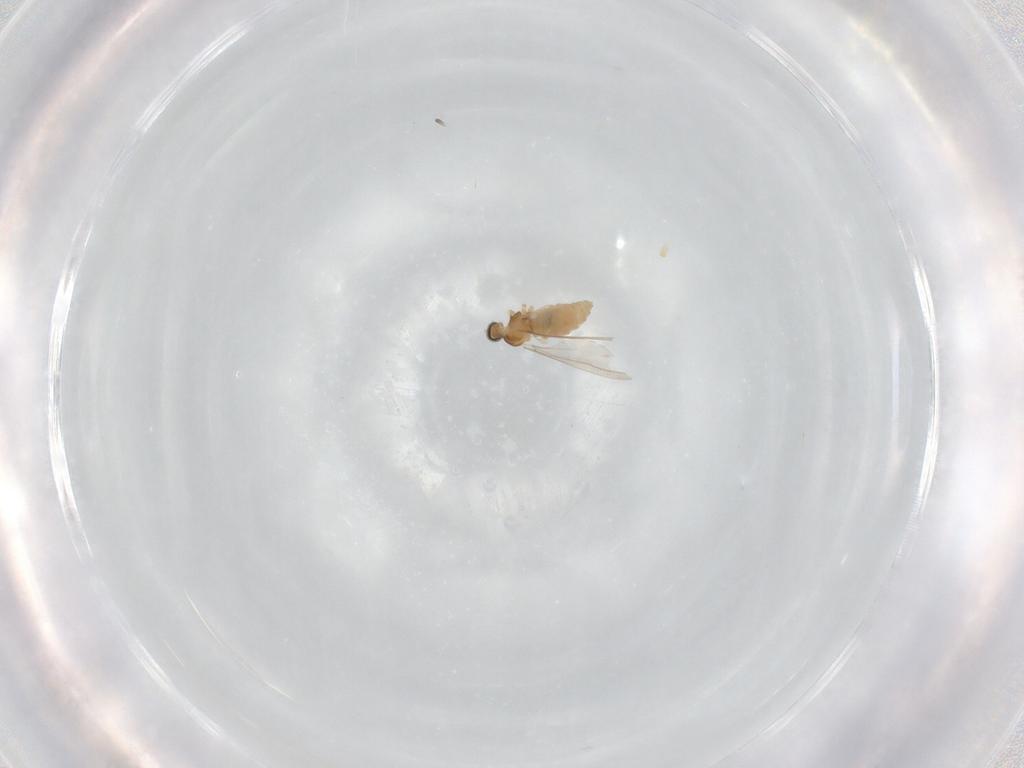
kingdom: Animalia
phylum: Arthropoda
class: Insecta
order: Diptera
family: Cecidomyiidae
